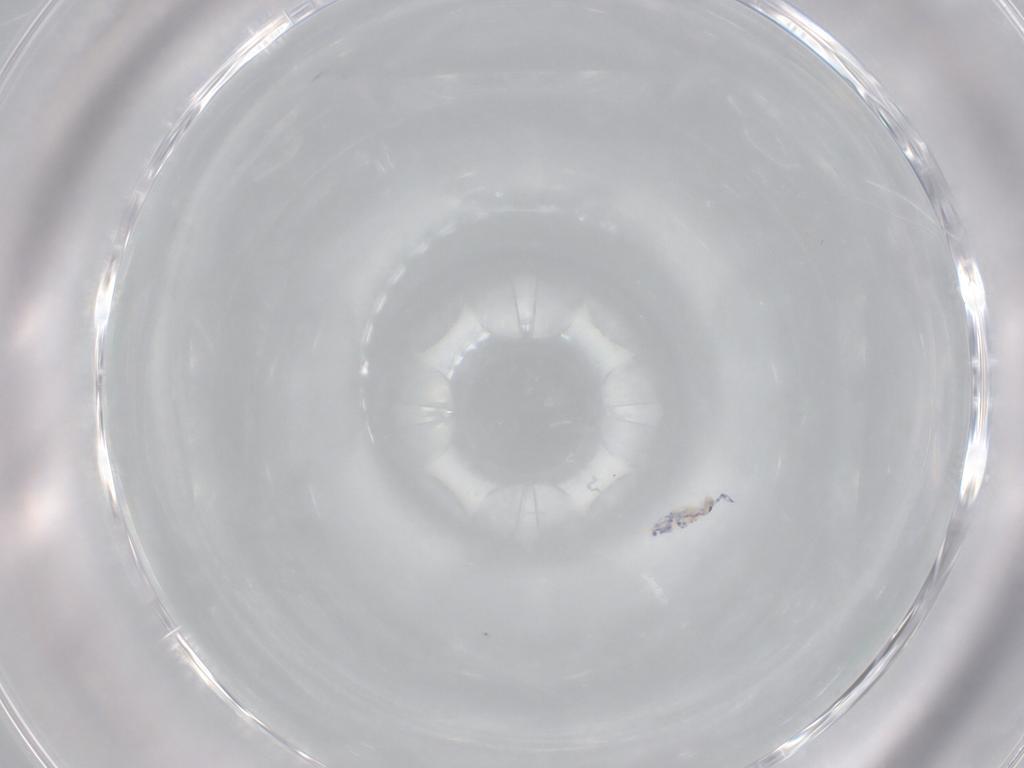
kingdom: Animalia
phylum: Arthropoda
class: Collembola
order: Entomobryomorpha
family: Entomobryidae
